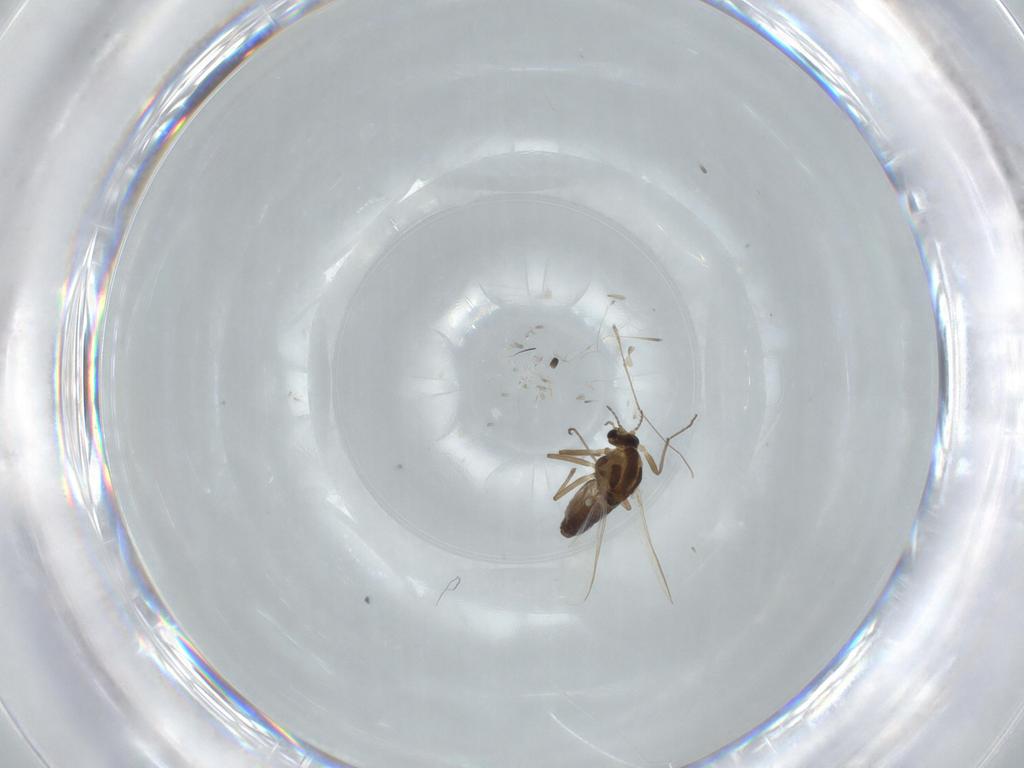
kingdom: Animalia
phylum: Arthropoda
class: Insecta
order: Diptera
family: Chironomidae
